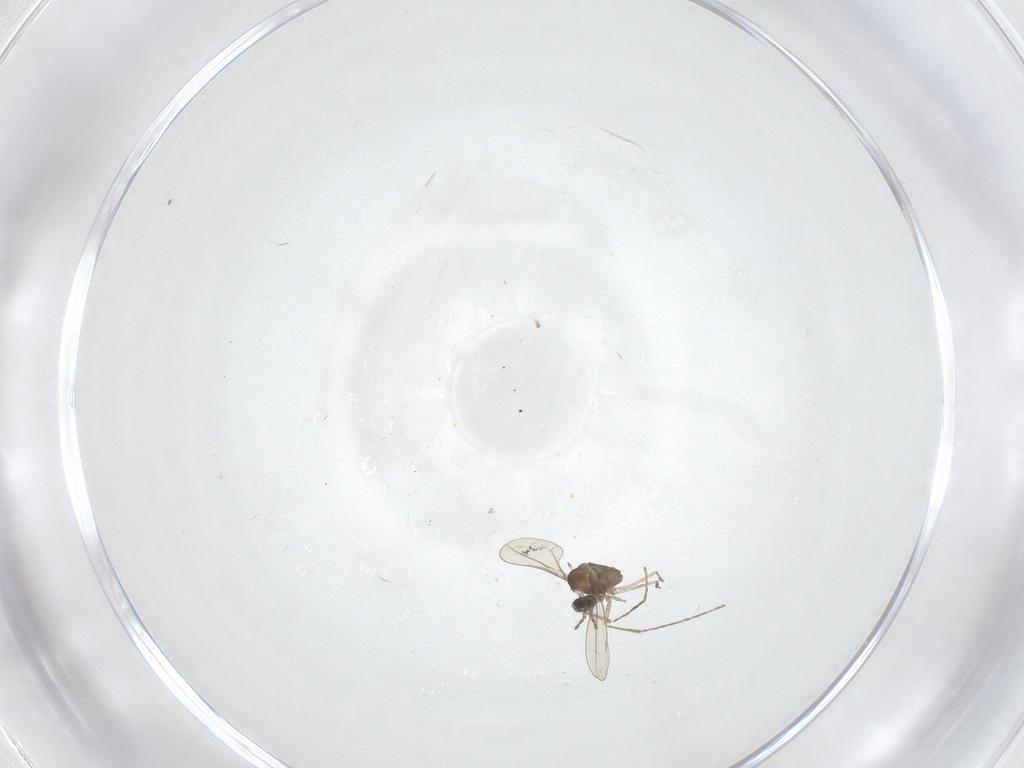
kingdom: Animalia
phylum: Arthropoda
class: Insecta
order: Diptera
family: Cecidomyiidae
